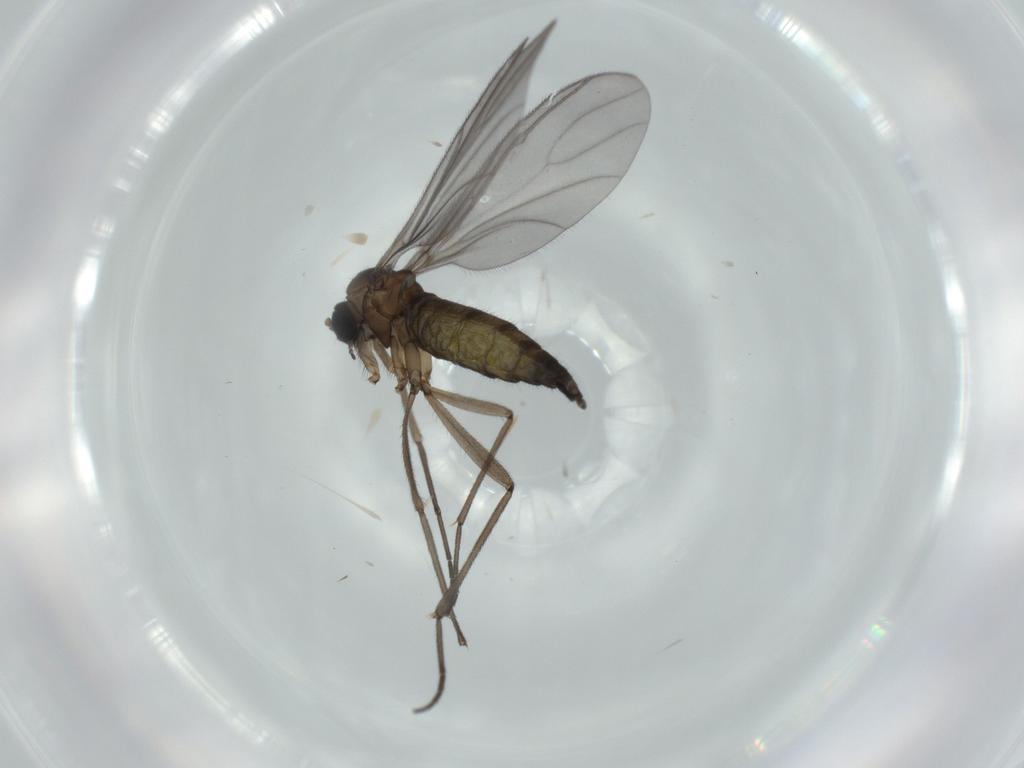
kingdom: Animalia
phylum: Arthropoda
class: Insecta
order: Diptera
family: Sciaridae
